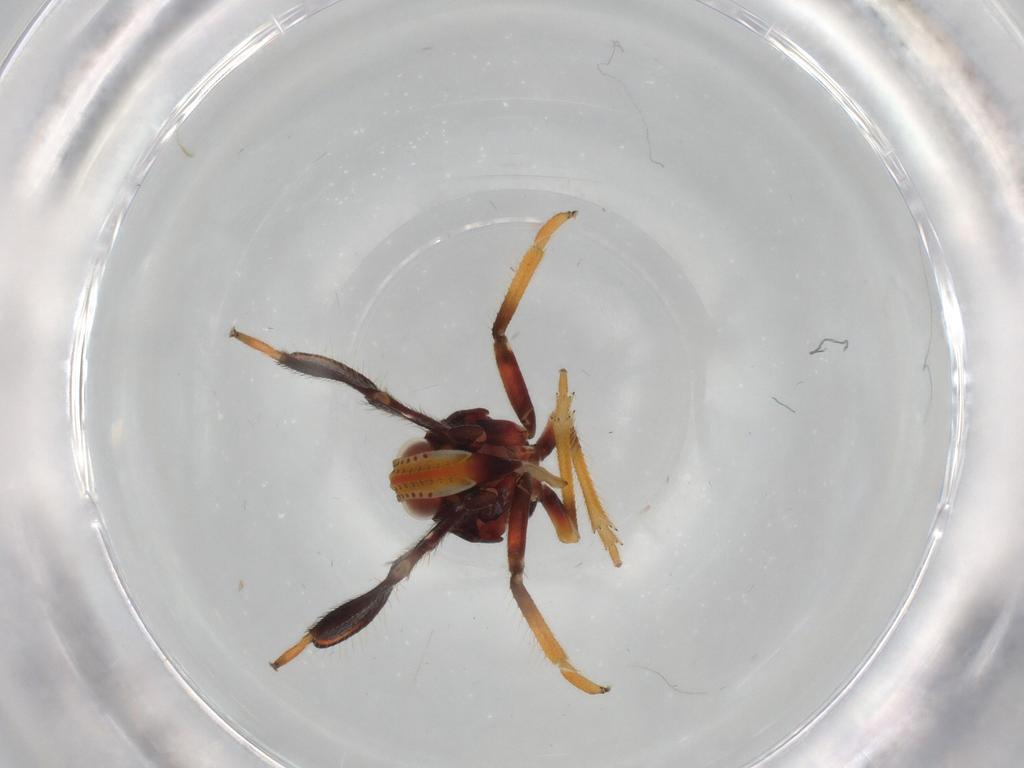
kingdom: Animalia
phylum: Arthropoda
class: Insecta
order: Hemiptera
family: Caliscelidae
